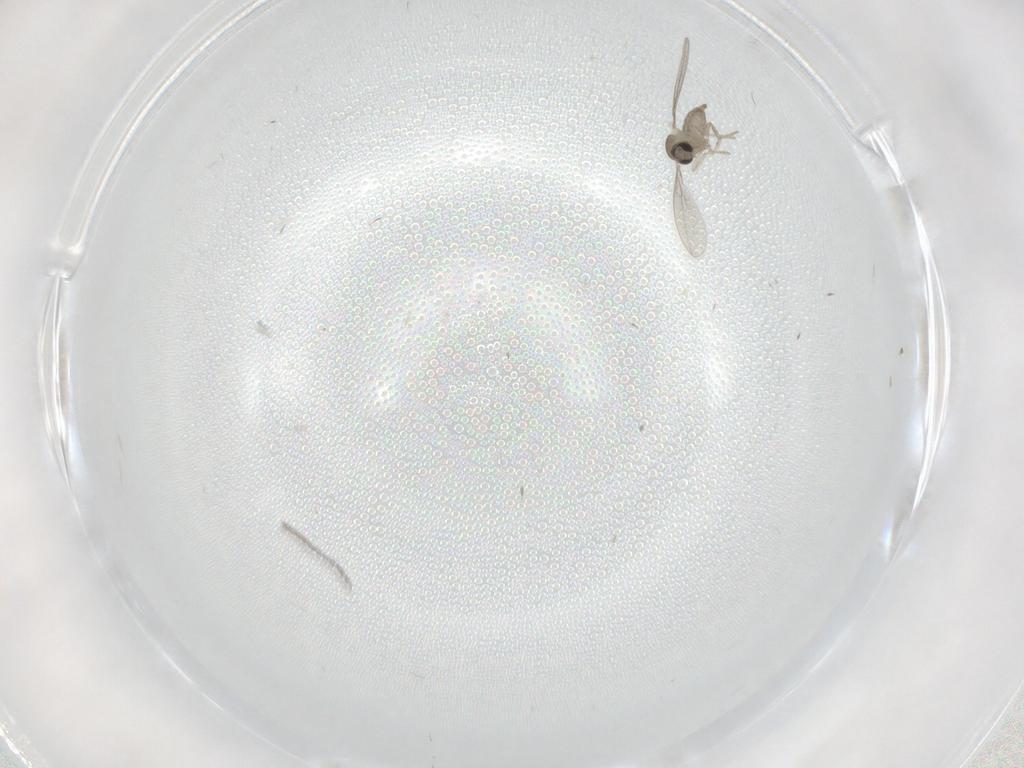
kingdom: Animalia
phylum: Arthropoda
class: Insecta
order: Diptera
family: Cecidomyiidae
